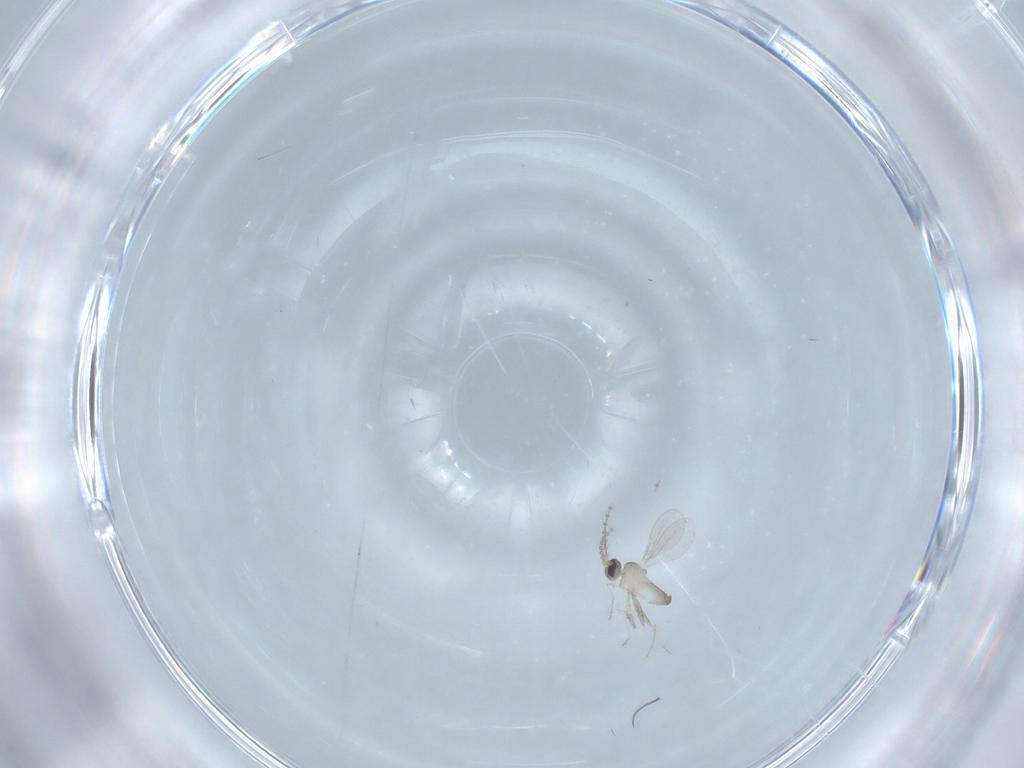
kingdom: Animalia
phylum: Arthropoda
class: Insecta
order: Diptera
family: Cecidomyiidae
